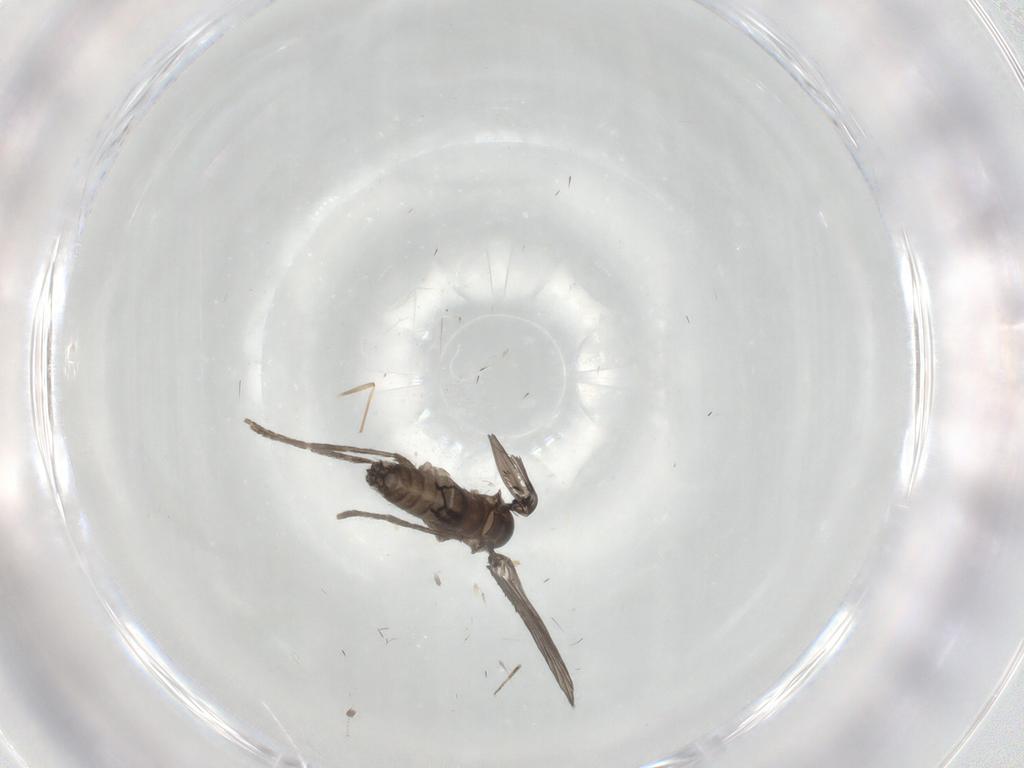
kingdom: Animalia
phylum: Arthropoda
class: Insecta
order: Diptera
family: Chironomidae
